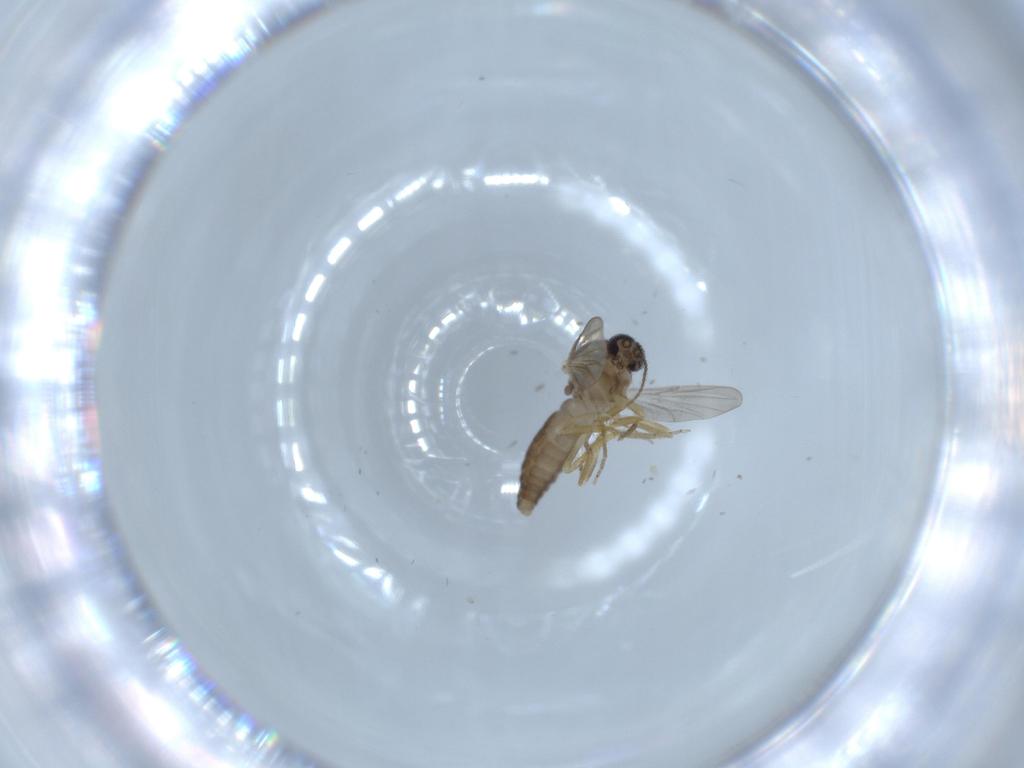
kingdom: Animalia
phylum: Arthropoda
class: Insecta
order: Diptera
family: Ceratopogonidae
